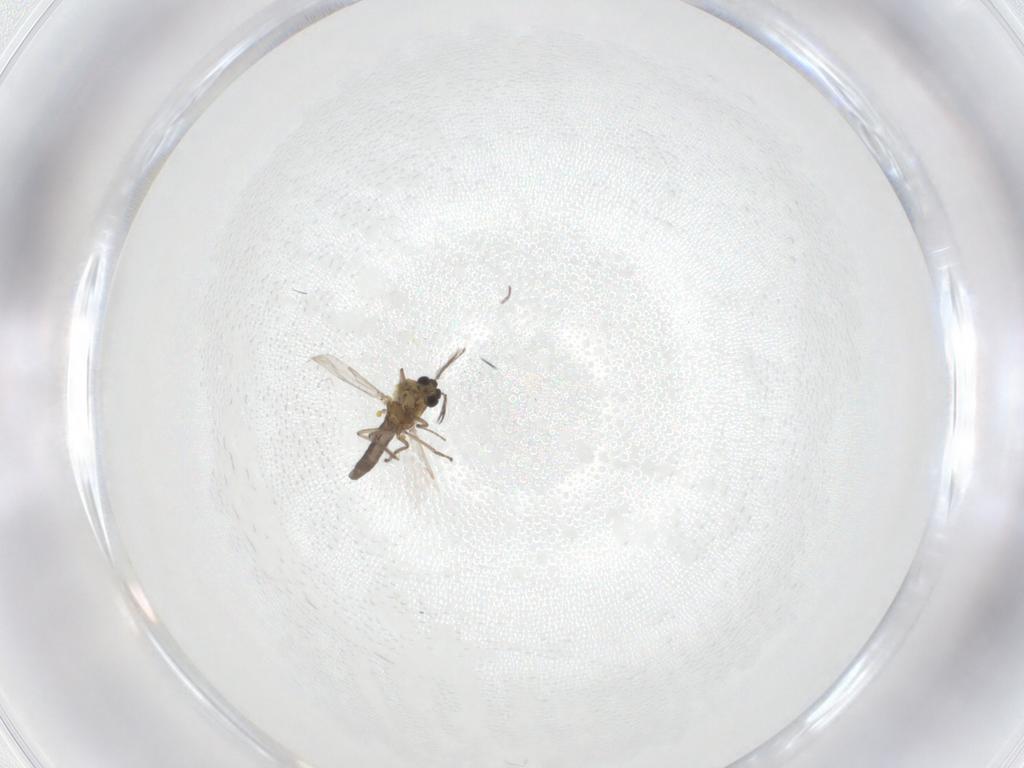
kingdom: Animalia
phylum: Arthropoda
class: Insecta
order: Diptera
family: Ceratopogonidae
